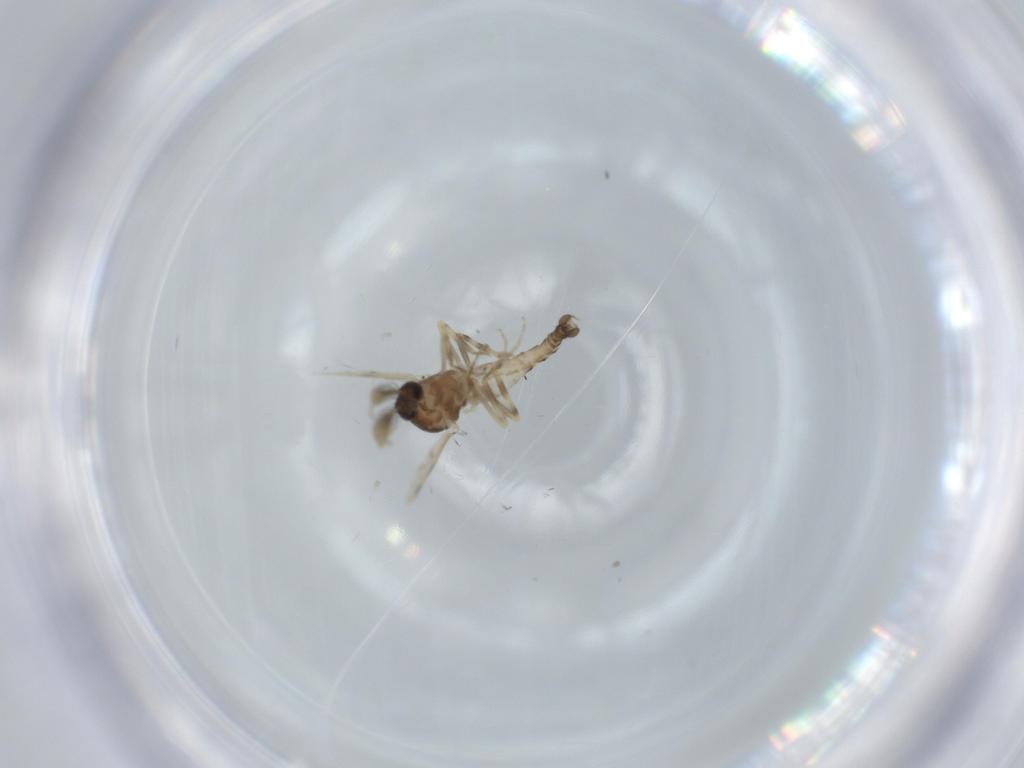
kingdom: Animalia
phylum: Arthropoda
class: Insecta
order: Diptera
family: Ceratopogonidae
